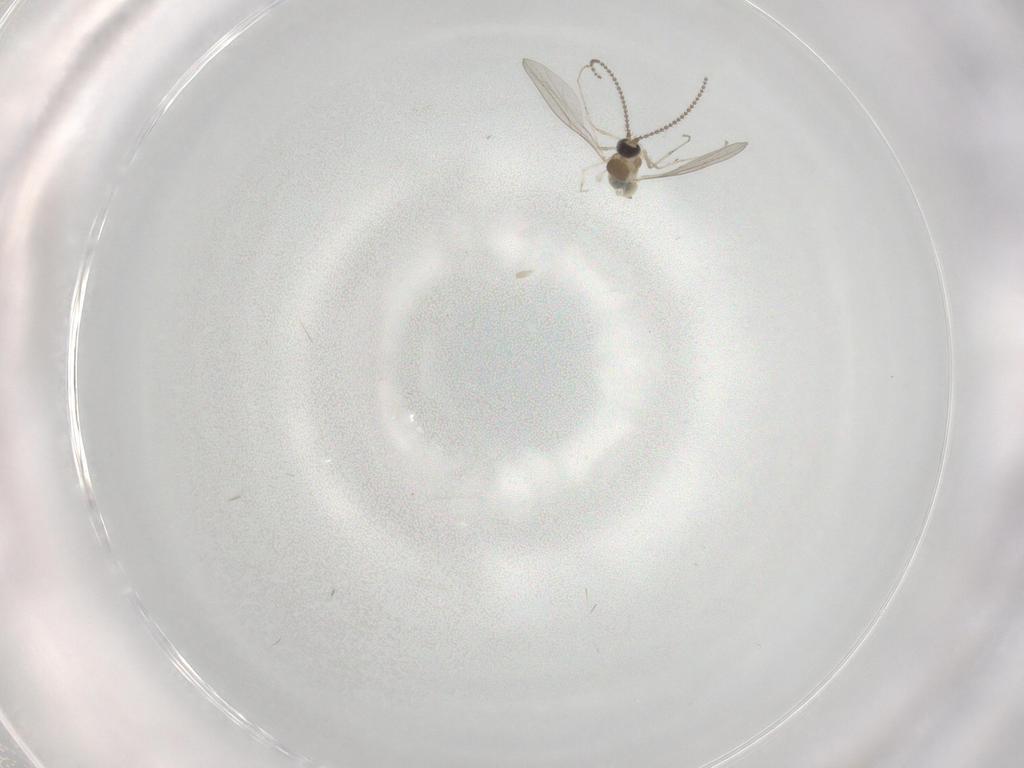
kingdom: Animalia
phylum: Arthropoda
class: Insecta
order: Diptera
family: Cecidomyiidae
